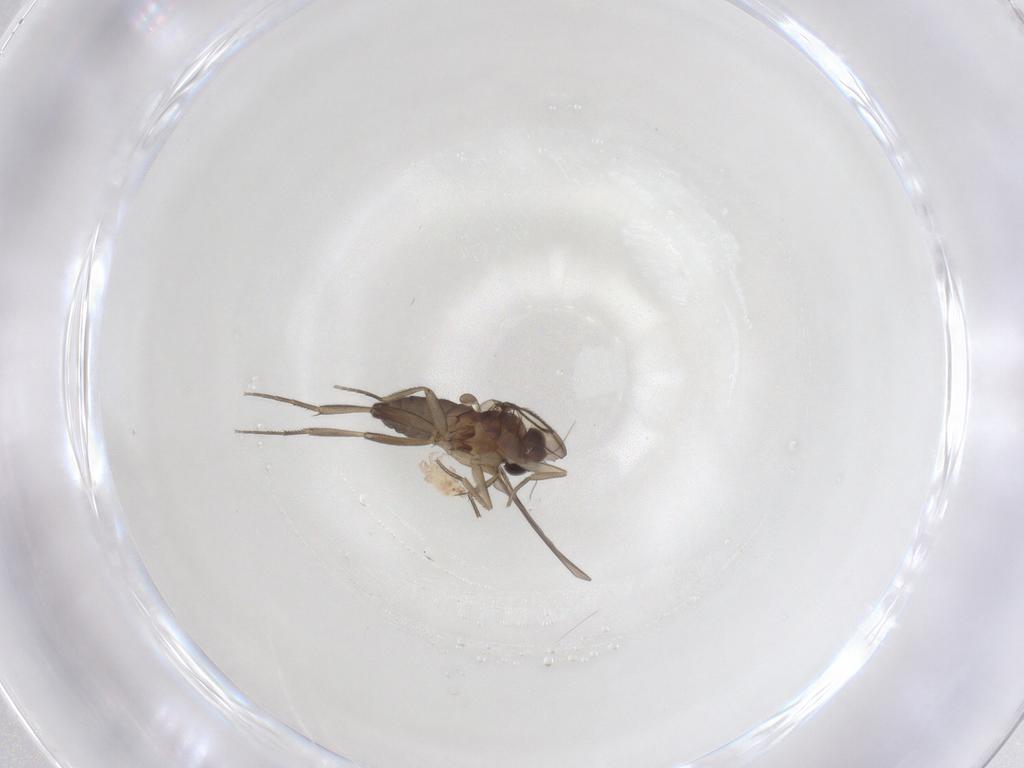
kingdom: Animalia
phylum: Arthropoda
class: Insecta
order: Diptera
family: Phoridae
